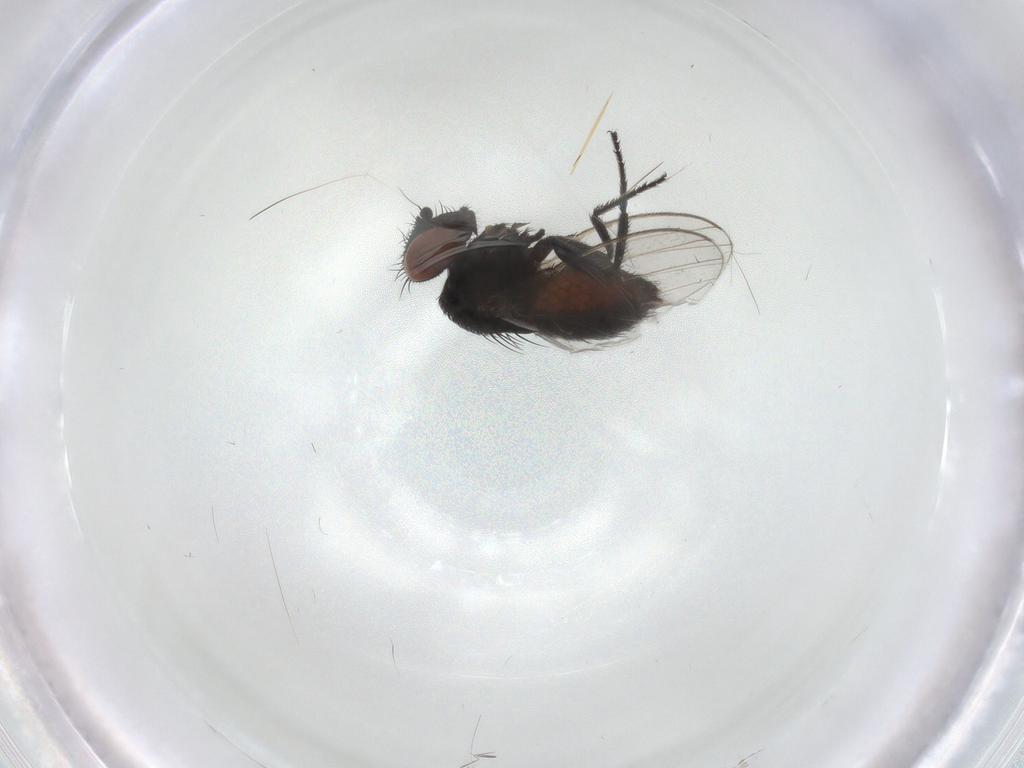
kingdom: Animalia
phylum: Arthropoda
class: Insecta
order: Diptera
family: Milichiidae
